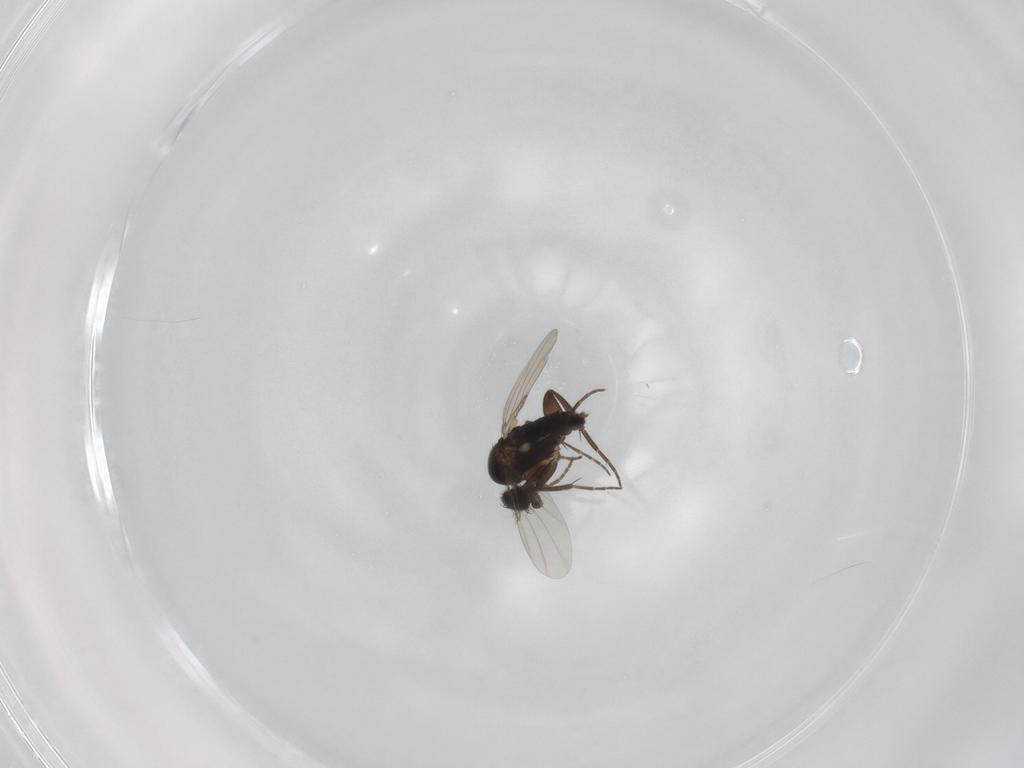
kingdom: Animalia
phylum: Arthropoda
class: Insecta
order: Diptera
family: Phoridae
